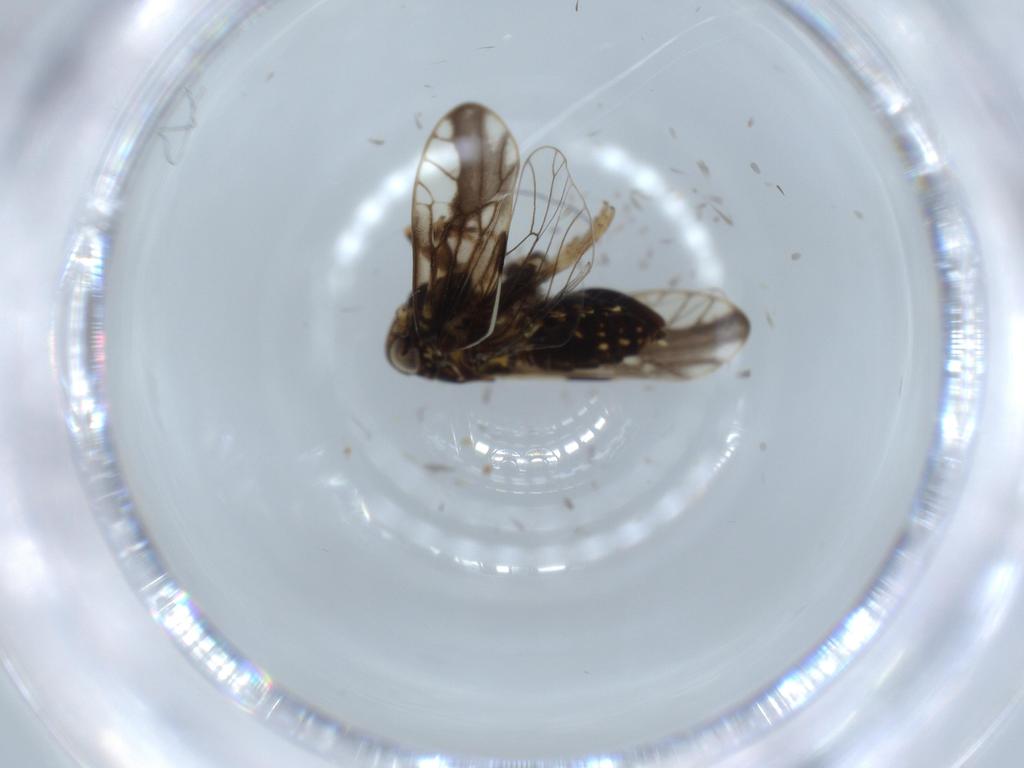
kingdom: Animalia
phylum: Arthropoda
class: Insecta
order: Hemiptera
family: Delphacidae
